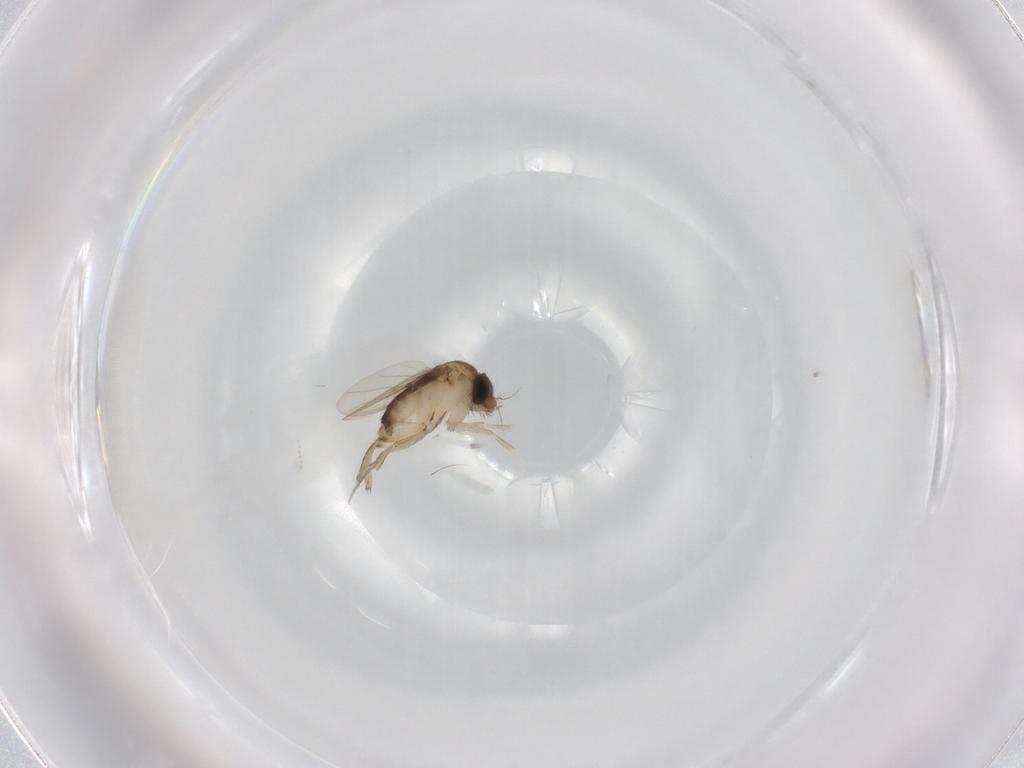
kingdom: Animalia
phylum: Arthropoda
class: Insecta
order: Diptera
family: Phoridae
